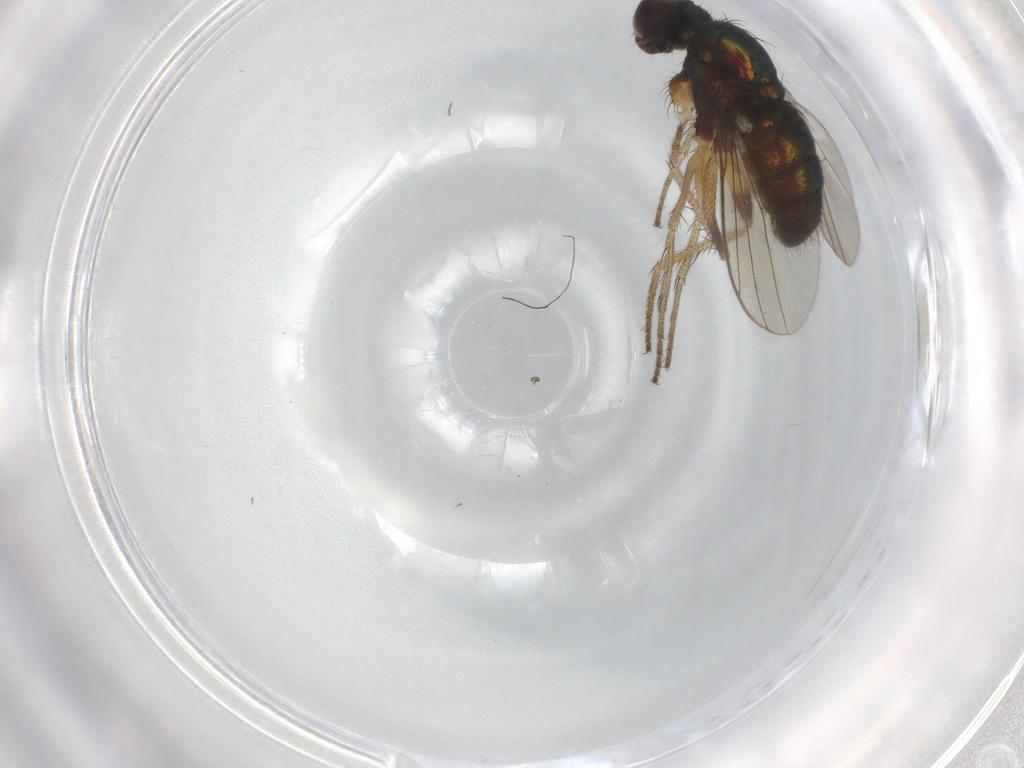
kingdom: Animalia
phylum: Arthropoda
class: Insecta
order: Diptera
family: Dolichopodidae
